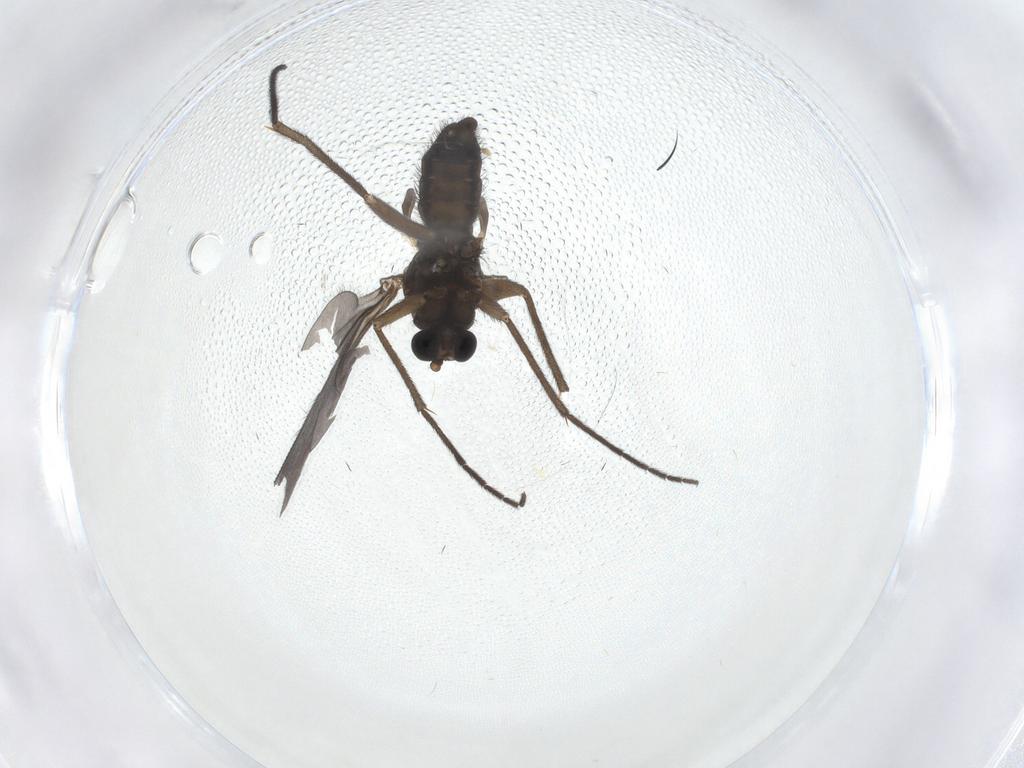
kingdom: Animalia
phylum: Arthropoda
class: Insecta
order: Diptera
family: Sciaridae
